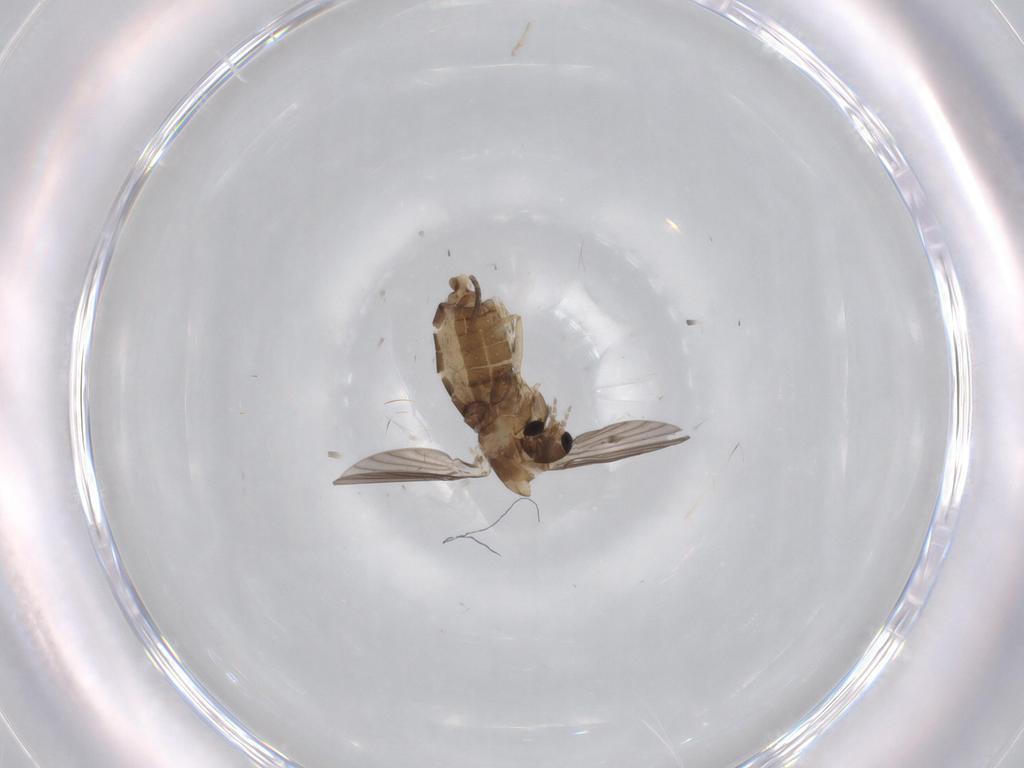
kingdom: Animalia
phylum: Arthropoda
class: Insecta
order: Diptera
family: Psychodidae
